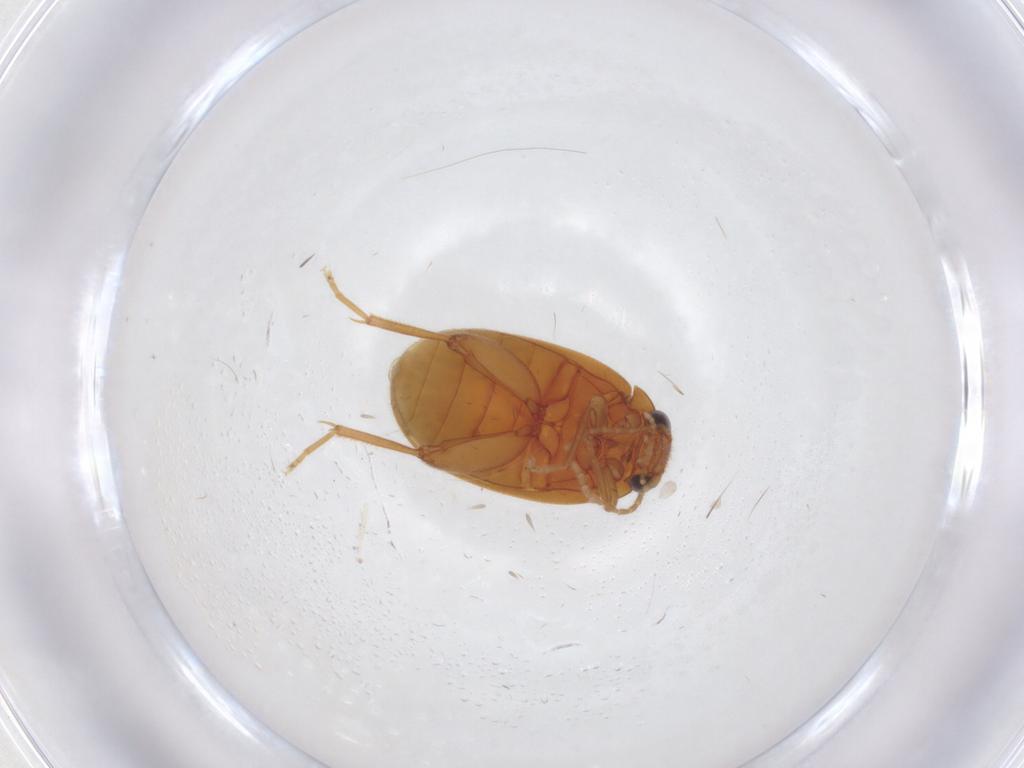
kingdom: Animalia
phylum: Arthropoda
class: Insecta
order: Coleoptera
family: Scirtidae
